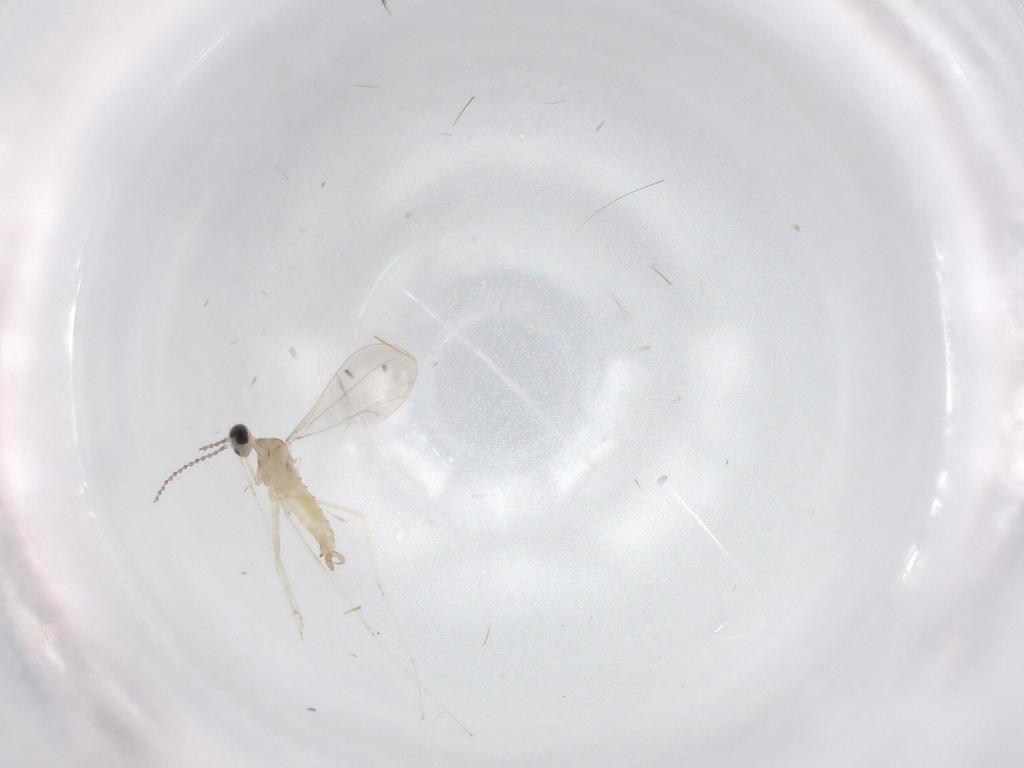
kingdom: Animalia
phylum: Arthropoda
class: Insecta
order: Diptera
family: Cecidomyiidae
